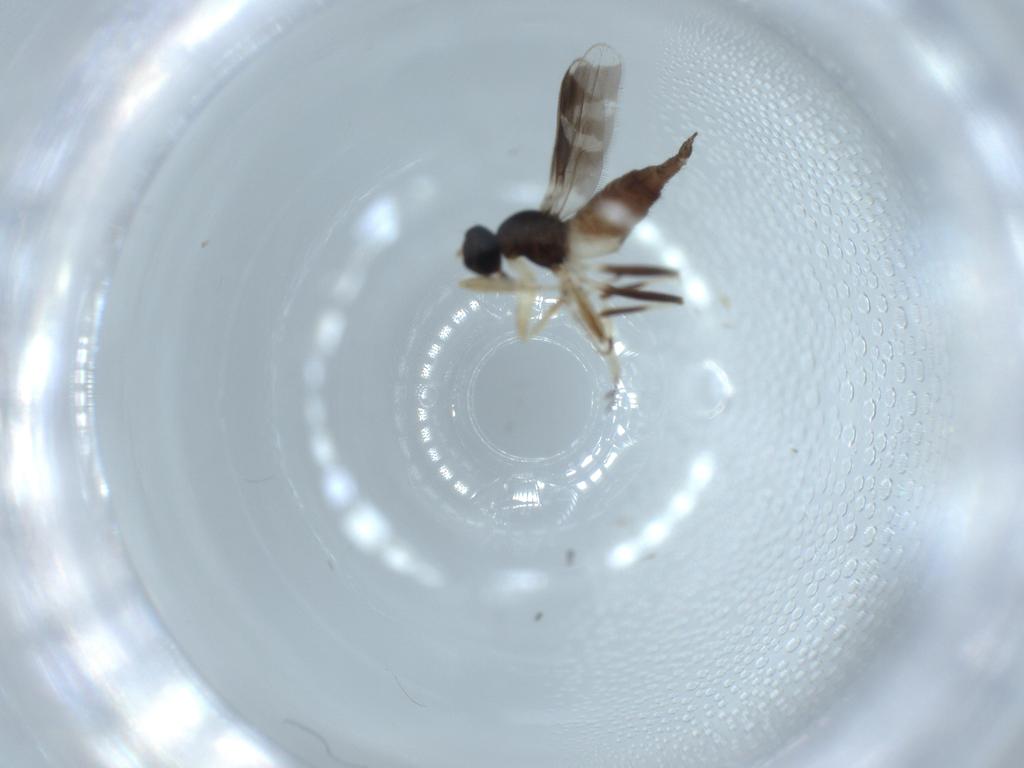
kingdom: Animalia
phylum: Arthropoda
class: Insecta
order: Diptera
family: Hybotidae
